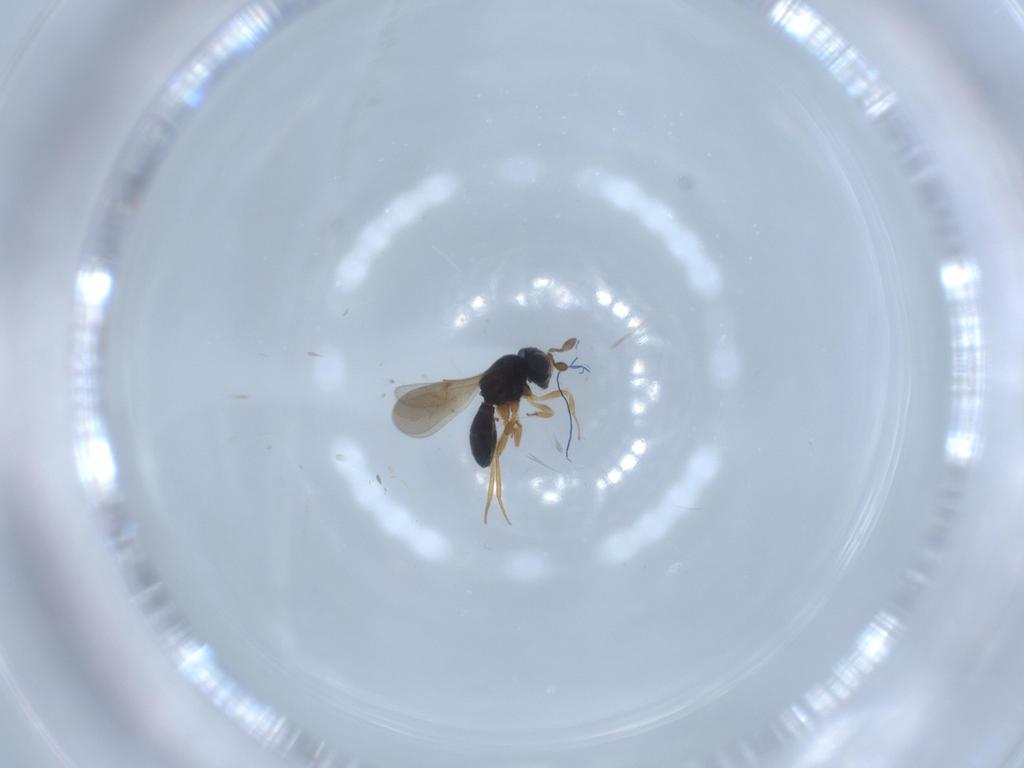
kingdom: Animalia
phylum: Arthropoda
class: Insecta
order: Hymenoptera
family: Scelionidae
